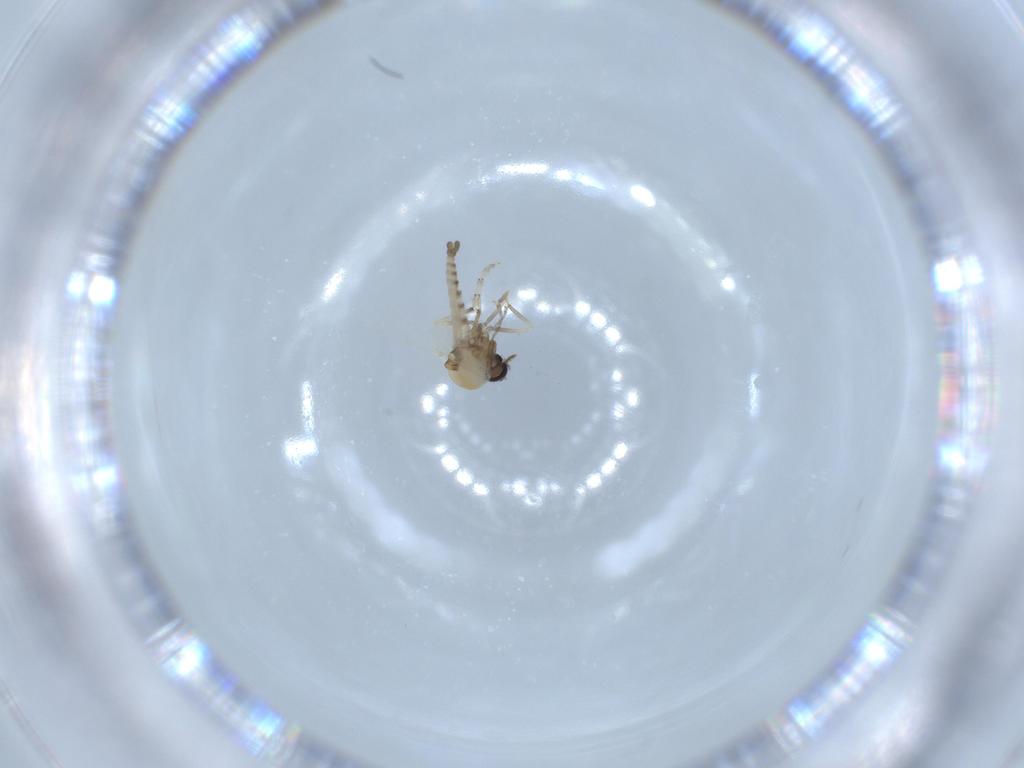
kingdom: Animalia
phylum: Arthropoda
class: Insecta
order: Diptera
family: Ceratopogonidae
